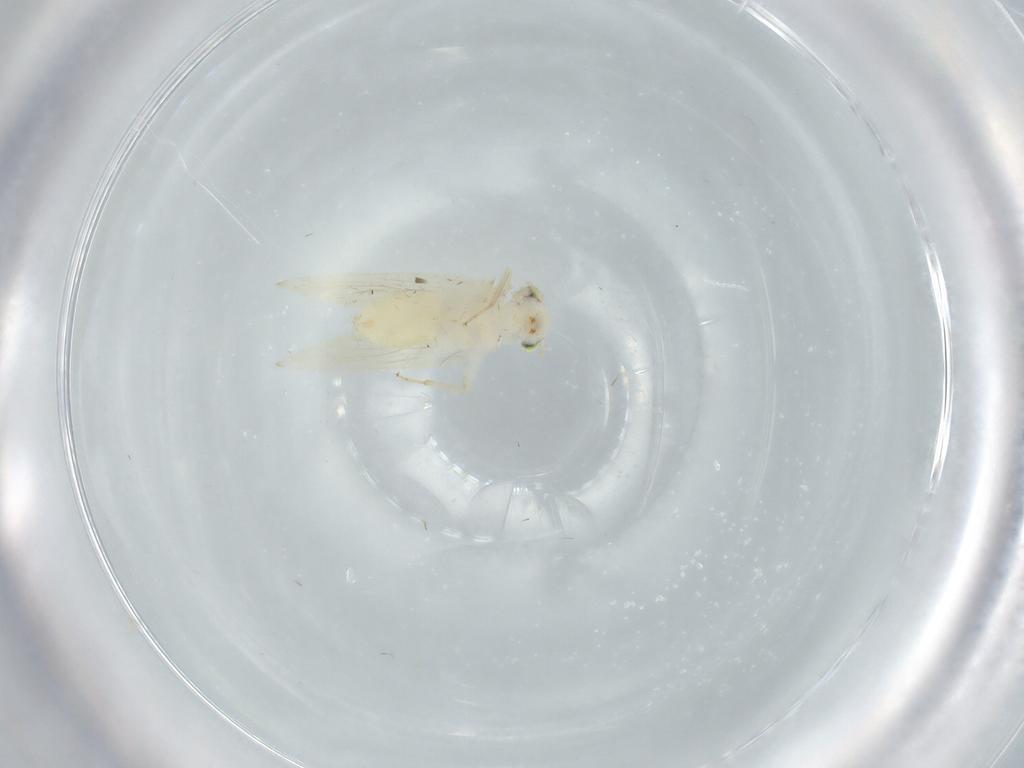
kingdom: Animalia
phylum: Arthropoda
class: Insecta
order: Psocodea
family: Lepidopsocidae
